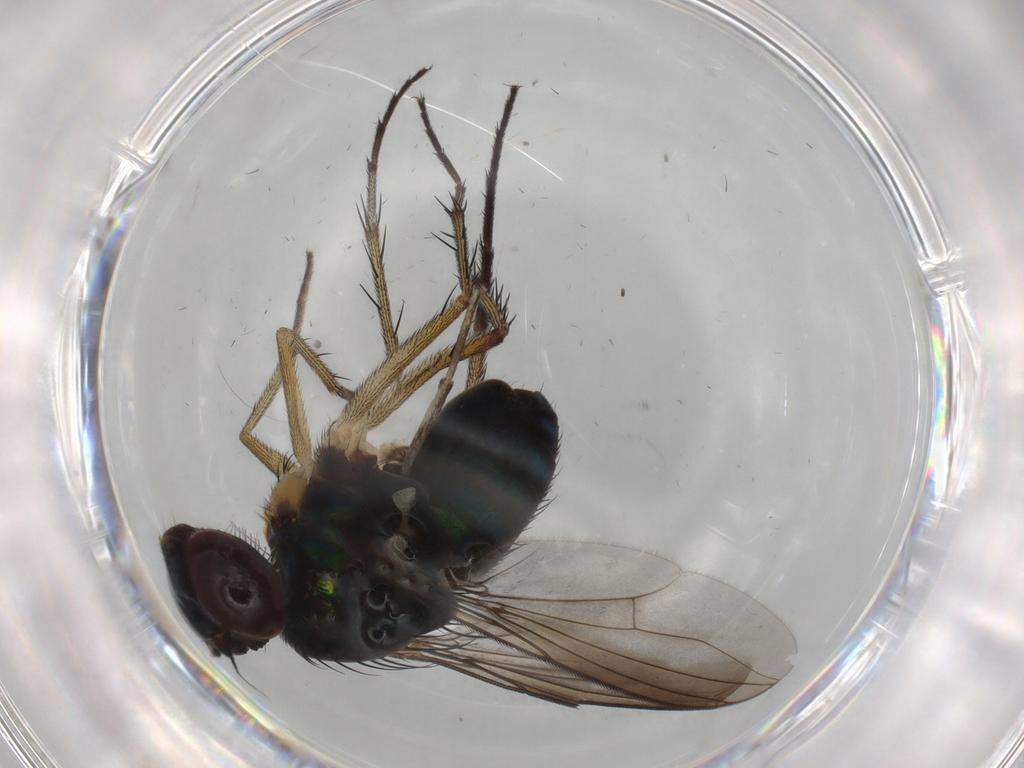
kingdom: Animalia
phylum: Arthropoda
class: Insecta
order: Diptera
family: Dolichopodidae
